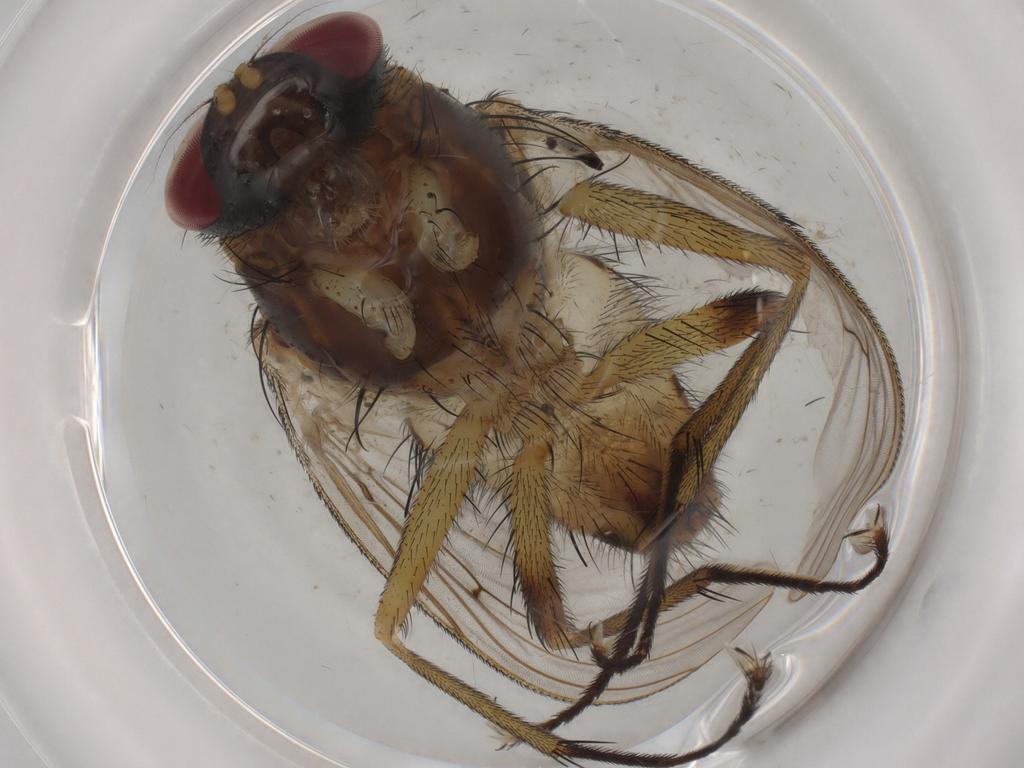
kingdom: Animalia
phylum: Arthropoda
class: Insecta
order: Diptera
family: Muscidae
